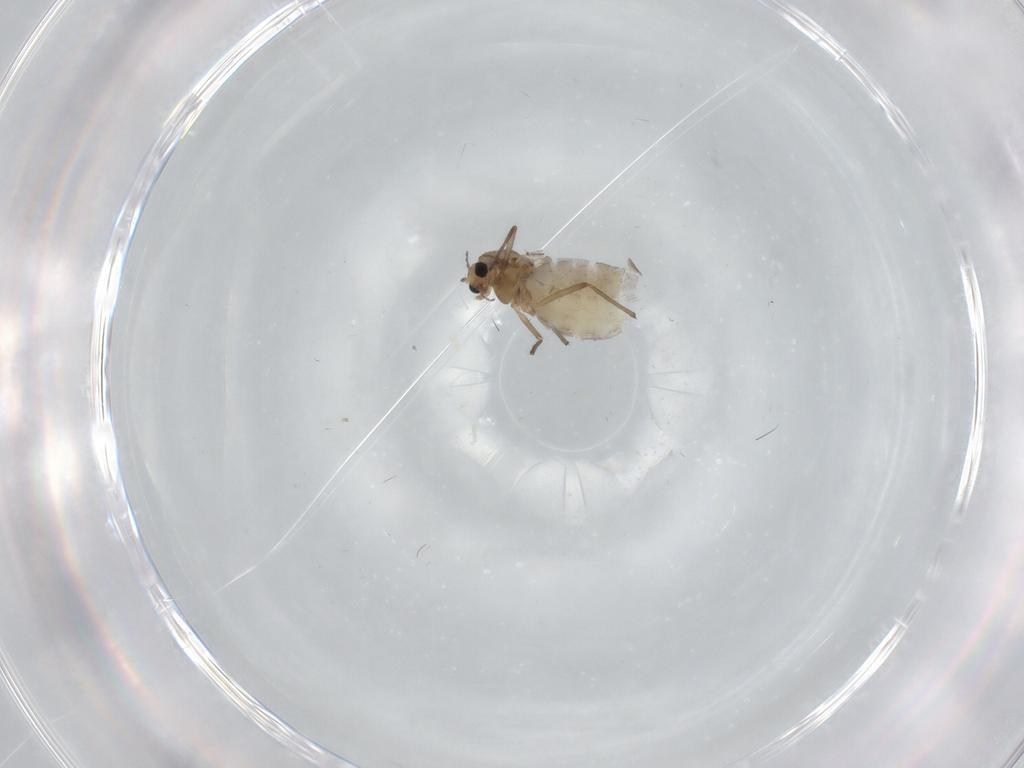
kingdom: Animalia
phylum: Arthropoda
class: Insecta
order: Diptera
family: Chironomidae
